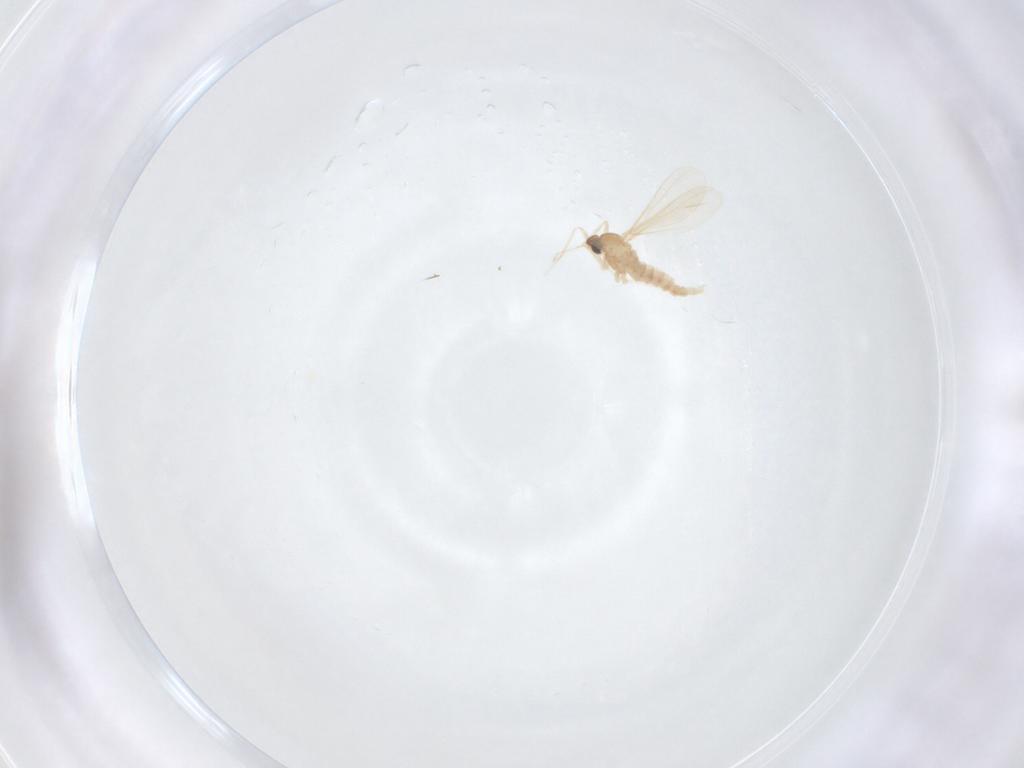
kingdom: Animalia
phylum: Arthropoda
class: Insecta
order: Diptera
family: Cecidomyiidae
